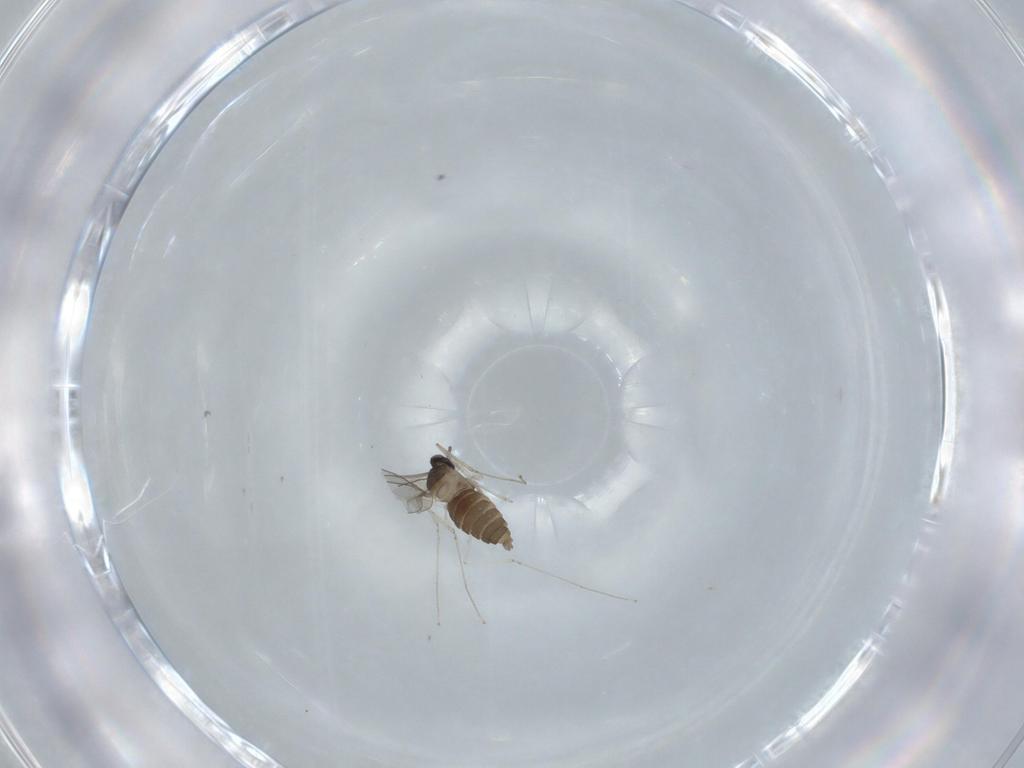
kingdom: Animalia
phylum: Arthropoda
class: Insecta
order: Diptera
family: Cecidomyiidae
